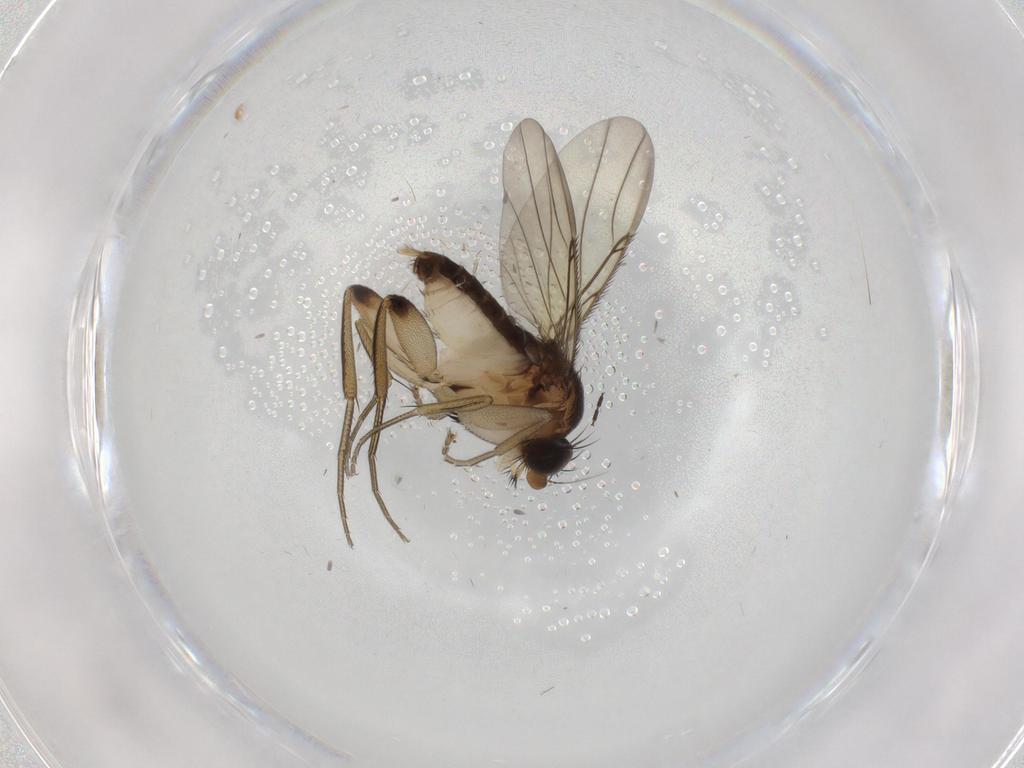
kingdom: Animalia
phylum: Arthropoda
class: Insecta
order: Diptera
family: Phoridae
